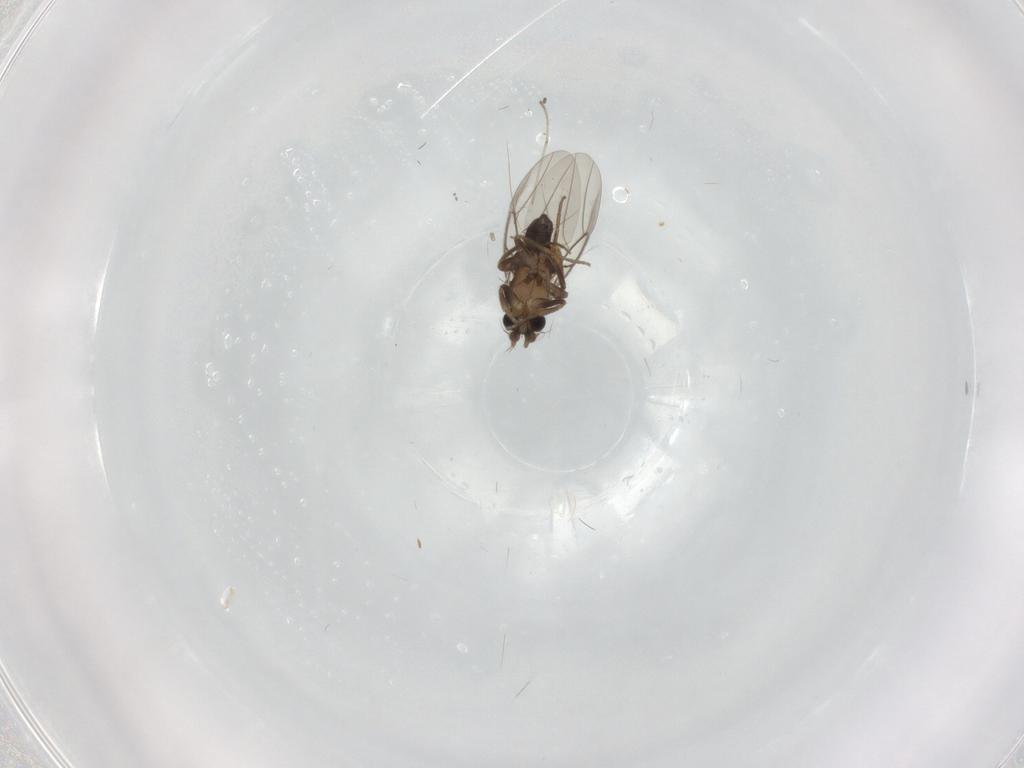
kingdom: Animalia
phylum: Arthropoda
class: Insecta
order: Diptera
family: Phoridae
